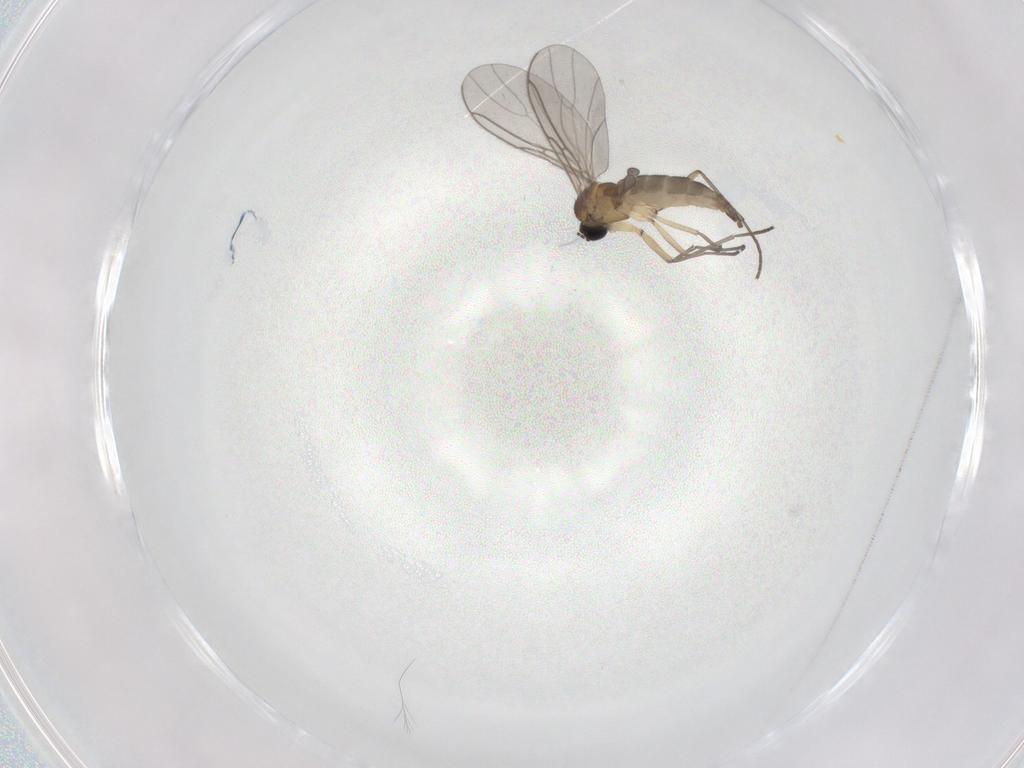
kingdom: Animalia
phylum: Arthropoda
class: Insecta
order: Diptera
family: Sciaridae
